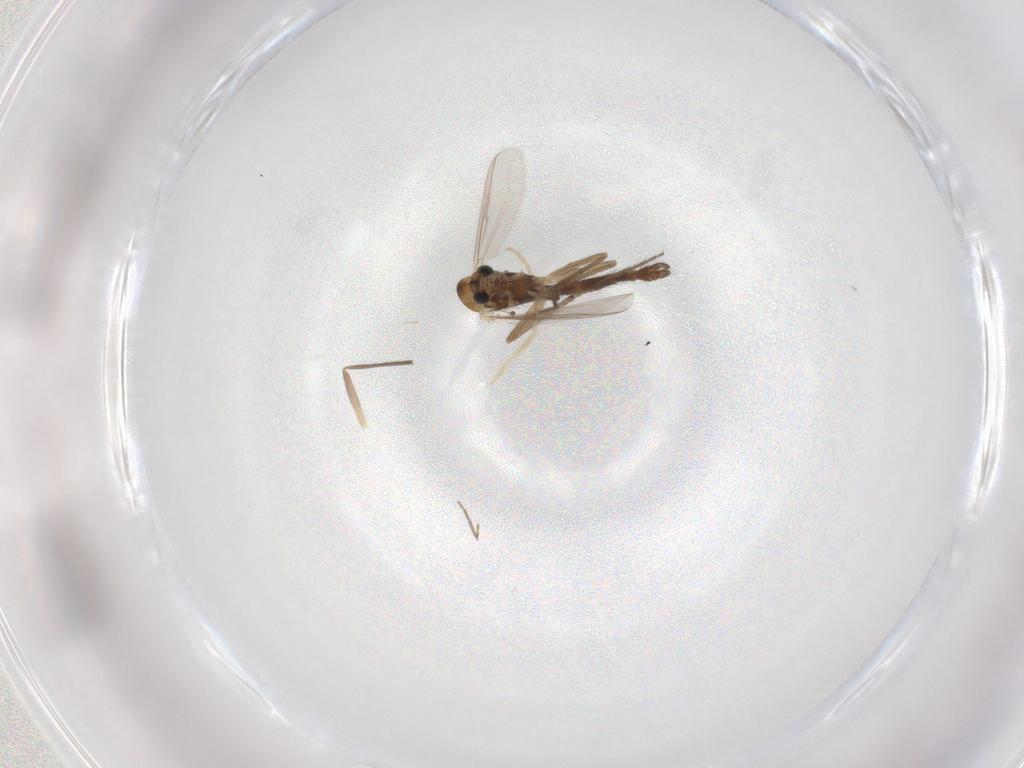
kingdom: Animalia
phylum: Arthropoda
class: Insecta
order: Diptera
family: Chironomidae
